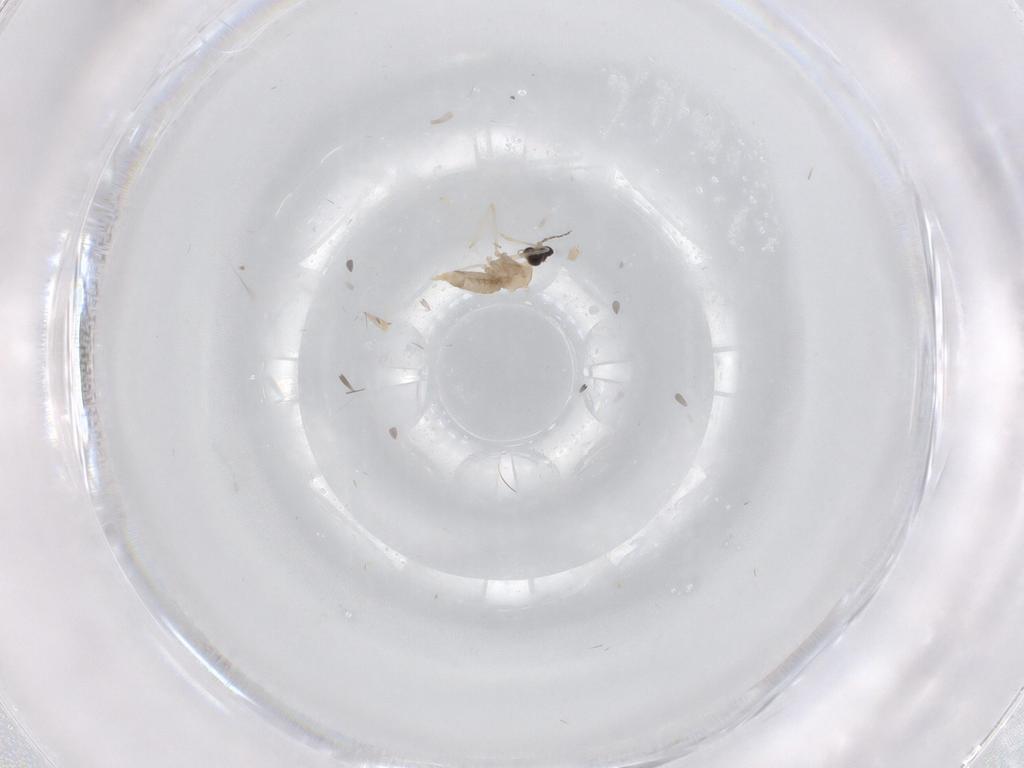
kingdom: Animalia
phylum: Arthropoda
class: Insecta
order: Diptera
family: Cecidomyiidae
